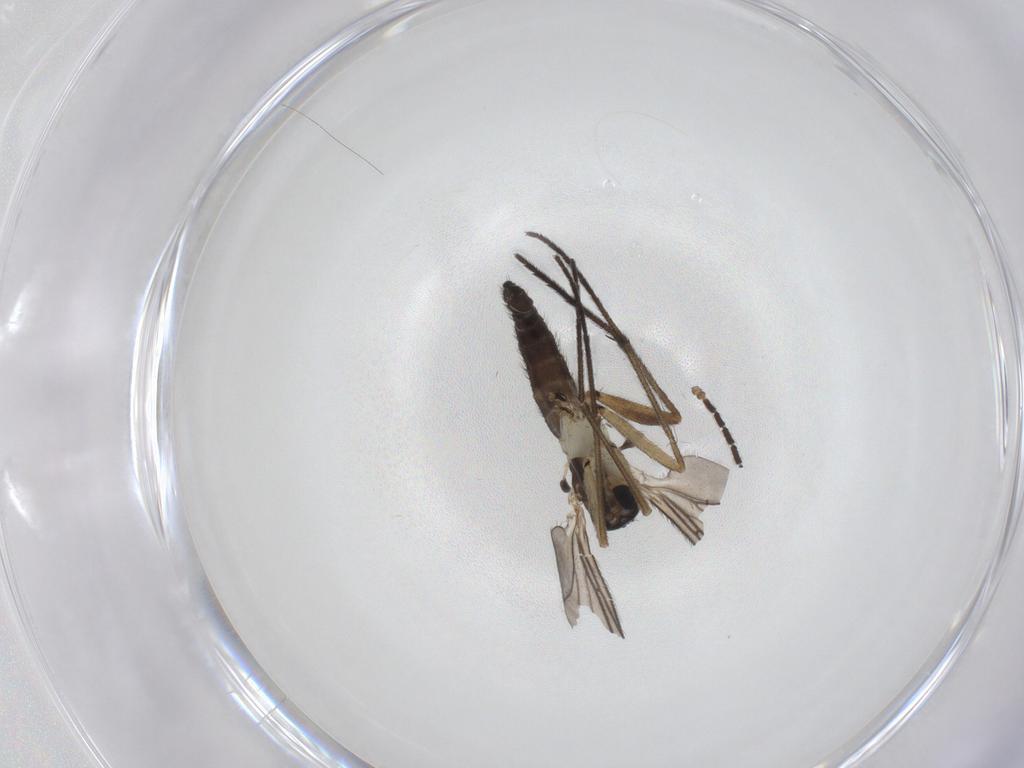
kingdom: Animalia
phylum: Arthropoda
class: Insecta
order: Diptera
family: Sciaridae
